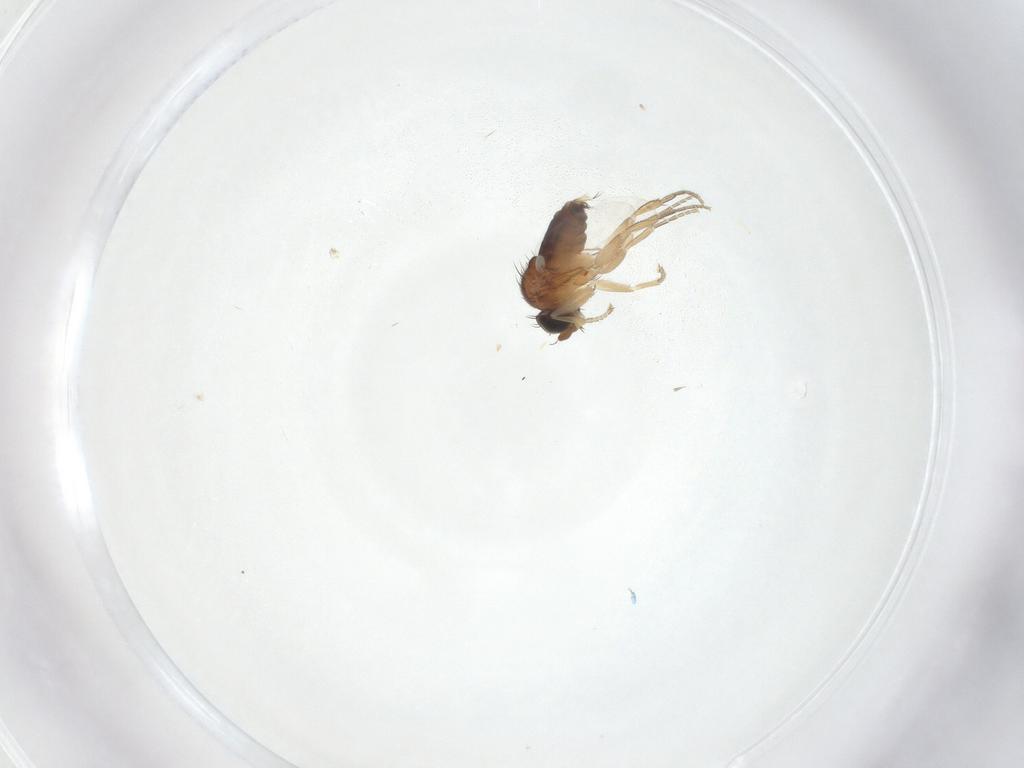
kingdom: Animalia
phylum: Arthropoda
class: Insecta
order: Diptera
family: Phoridae
